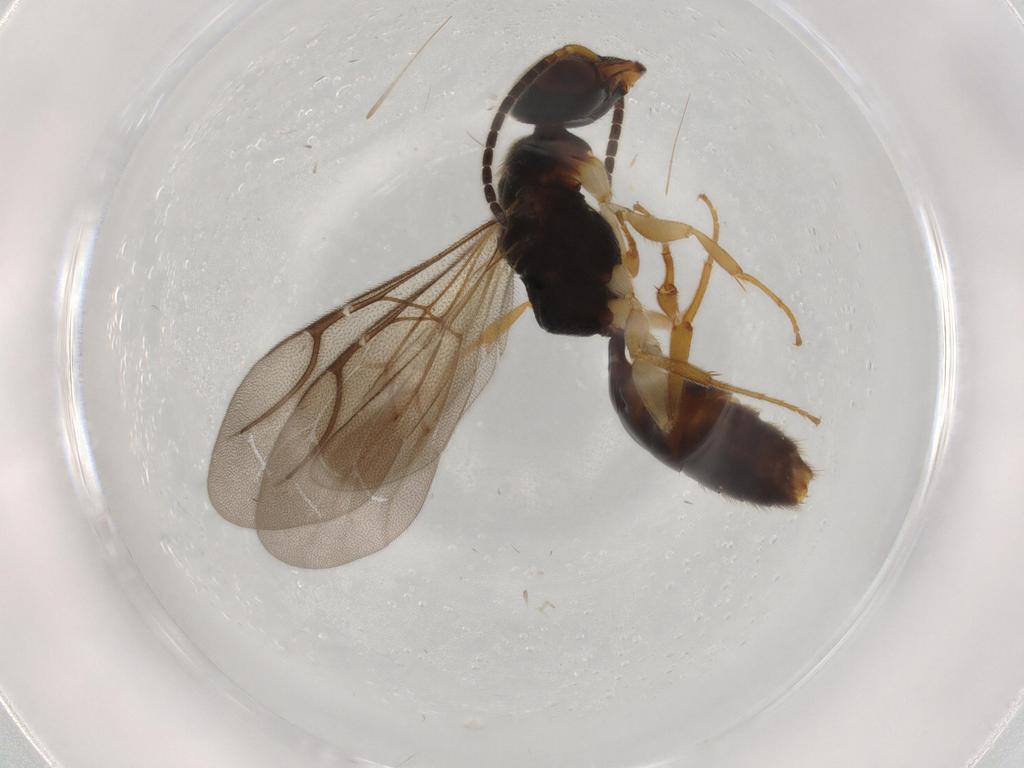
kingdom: Animalia
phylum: Arthropoda
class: Insecta
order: Hymenoptera
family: Bethylidae
